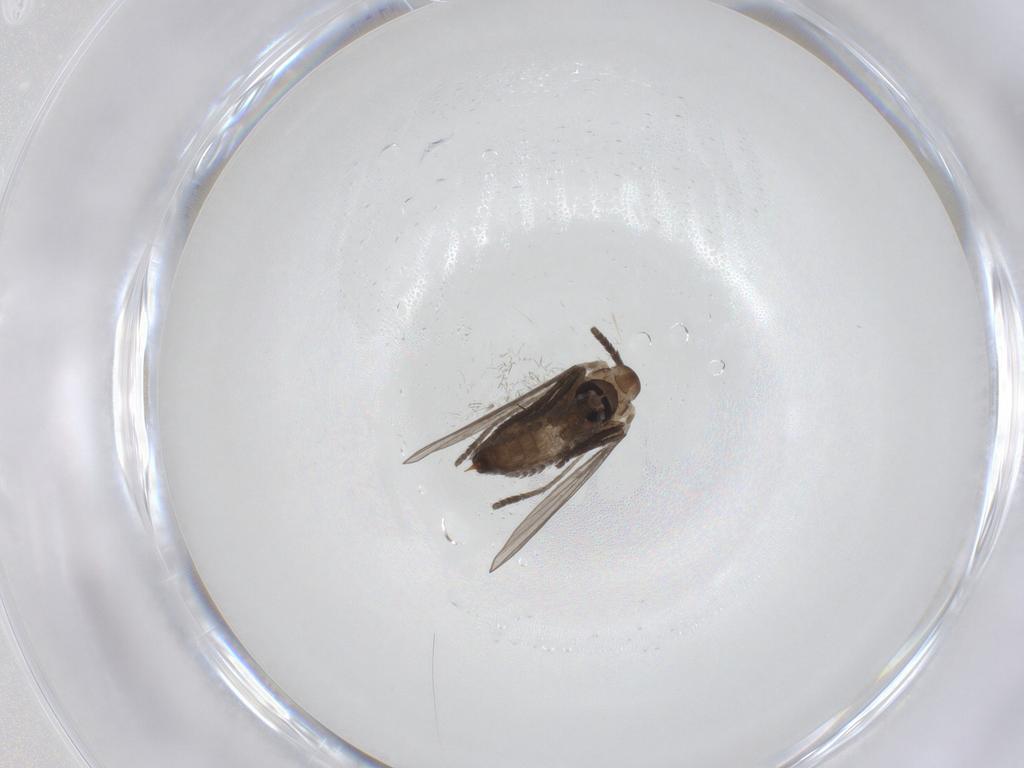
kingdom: Animalia
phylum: Arthropoda
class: Insecta
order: Diptera
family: Psychodidae
